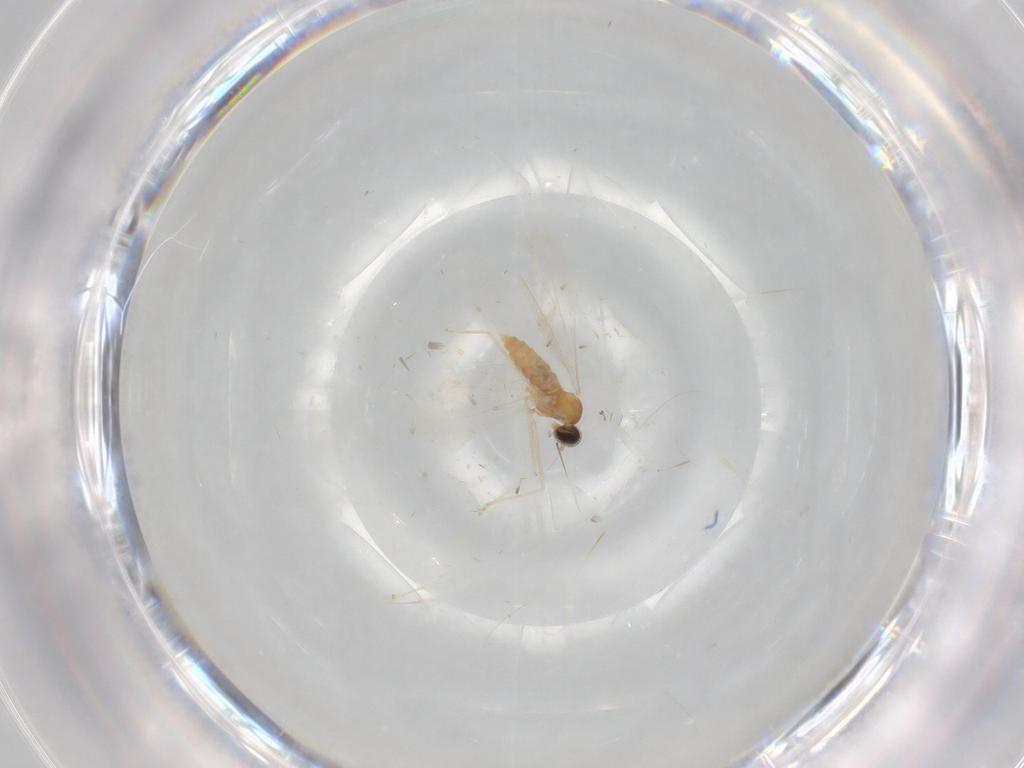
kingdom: Animalia
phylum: Arthropoda
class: Insecta
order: Diptera
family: Cecidomyiidae
